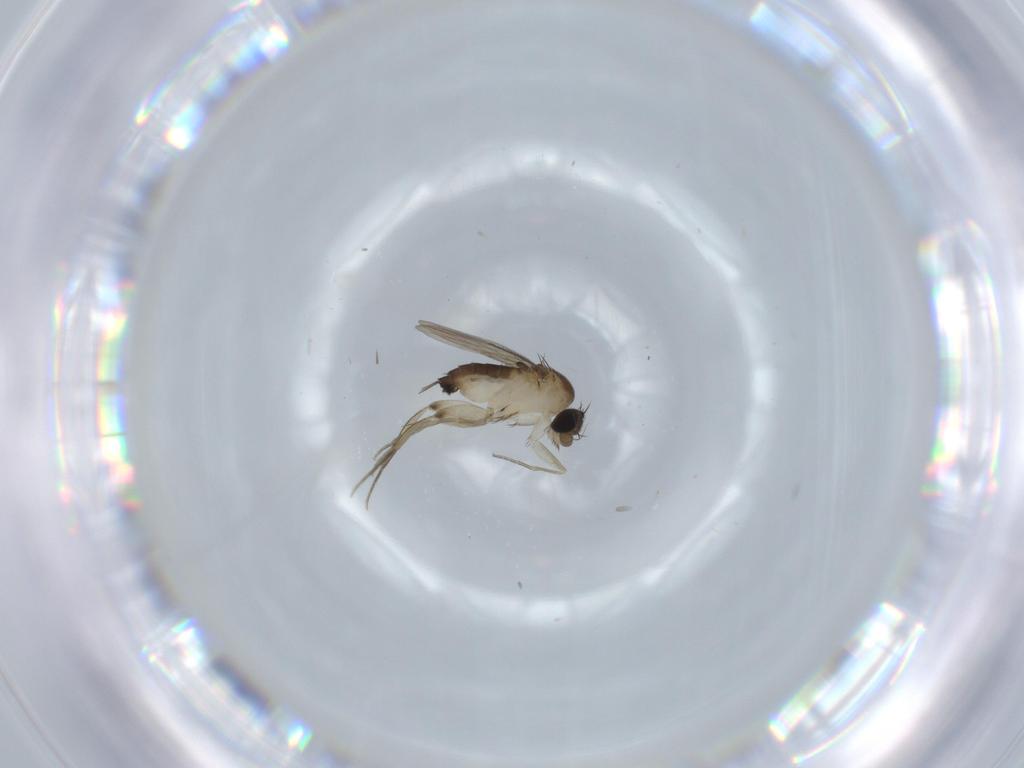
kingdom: Animalia
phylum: Arthropoda
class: Insecta
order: Diptera
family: Phoridae
